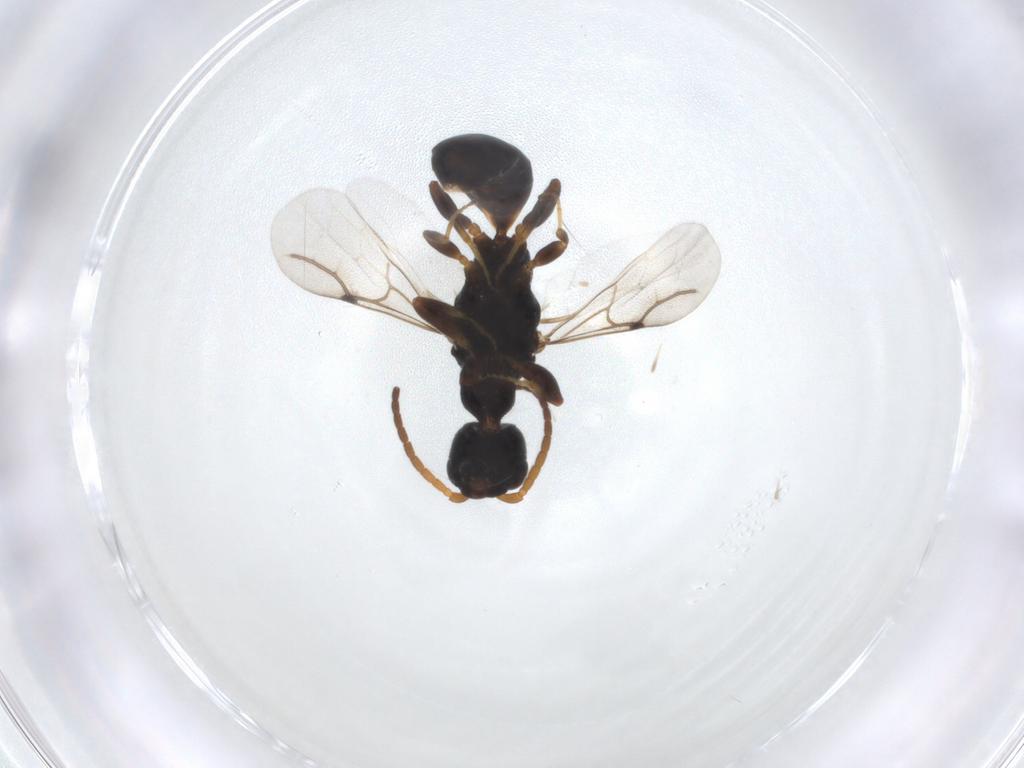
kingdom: Animalia
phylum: Arthropoda
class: Insecta
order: Hymenoptera
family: Bethylidae
